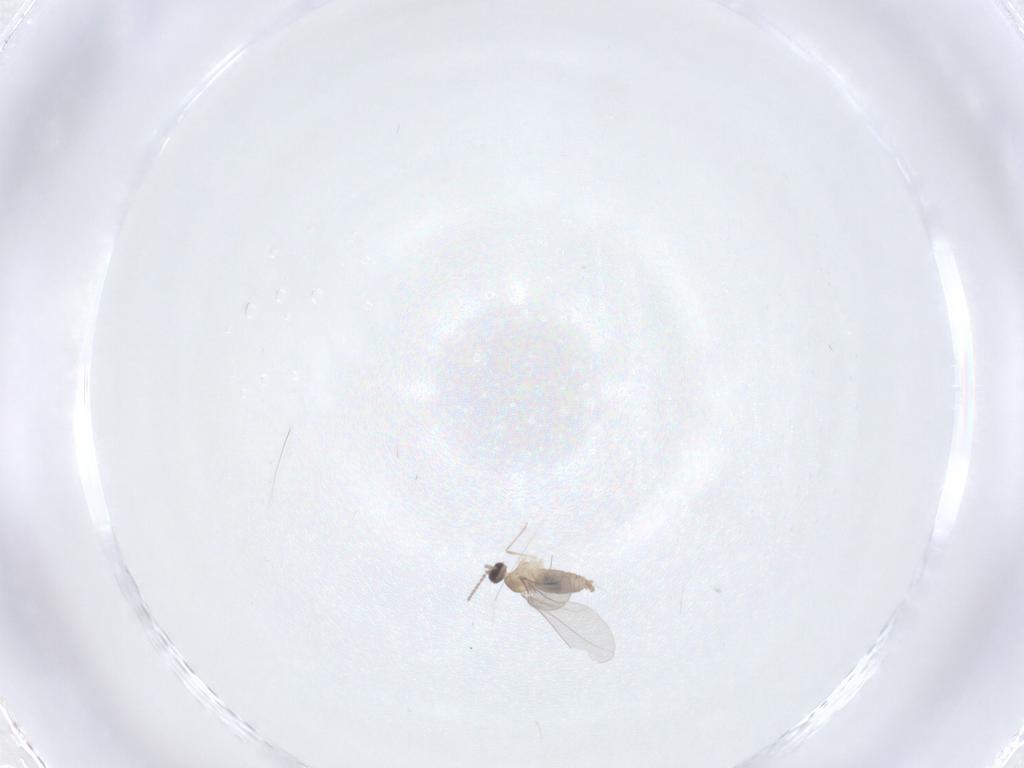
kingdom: Animalia
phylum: Arthropoda
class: Insecta
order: Diptera
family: Cecidomyiidae
